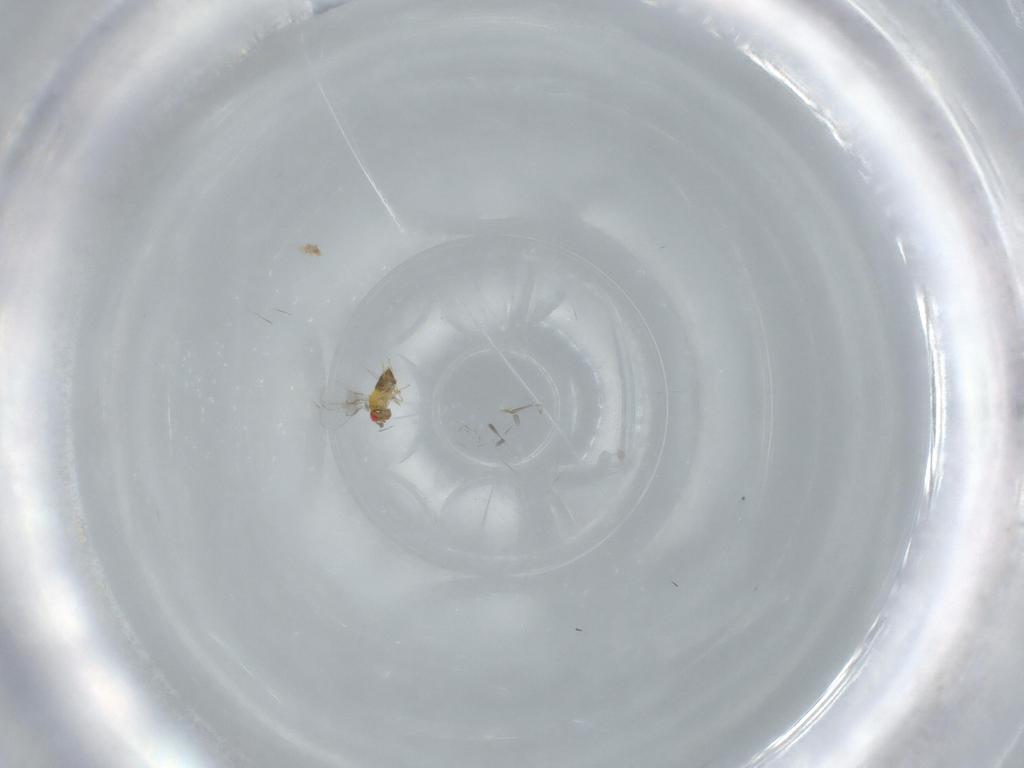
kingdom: Animalia
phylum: Arthropoda
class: Insecta
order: Hymenoptera
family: Trichogrammatidae
